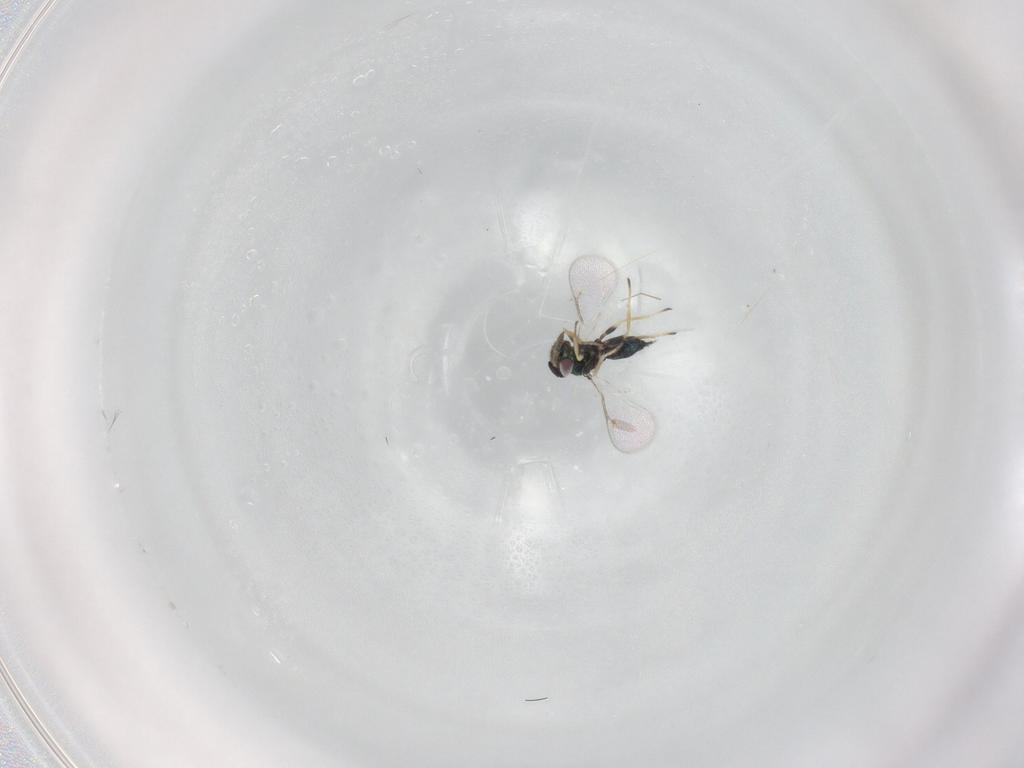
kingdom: Animalia
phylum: Arthropoda
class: Insecta
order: Hymenoptera
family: Eulophidae
